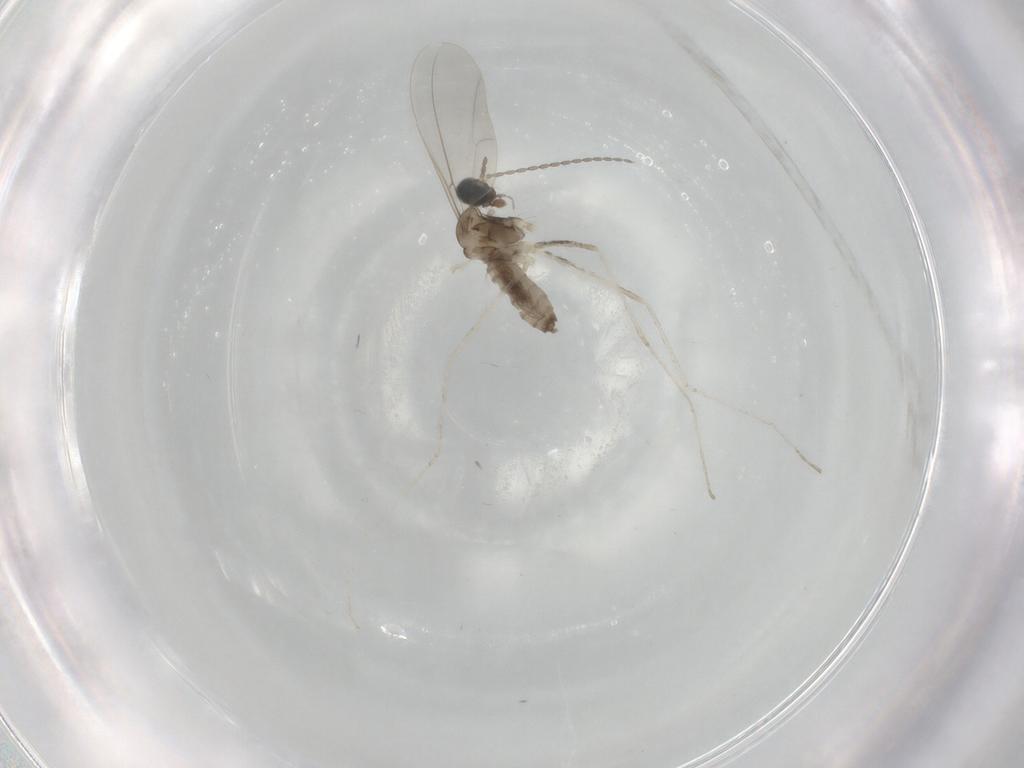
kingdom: Animalia
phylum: Arthropoda
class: Insecta
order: Diptera
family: Cecidomyiidae
